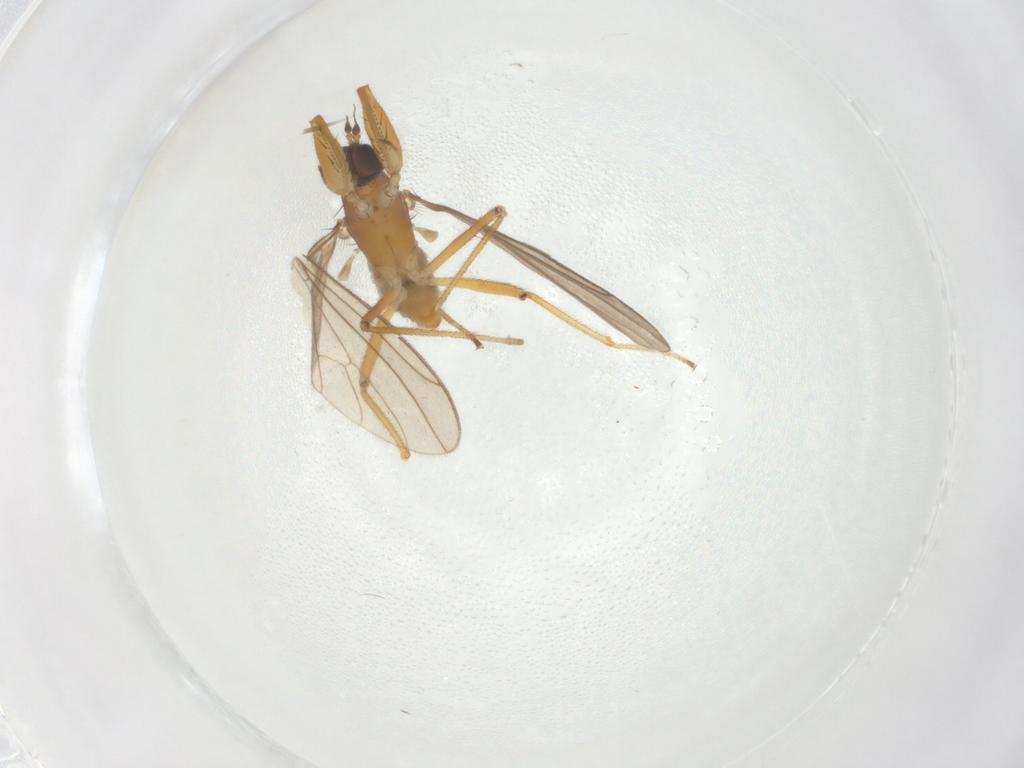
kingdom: Animalia
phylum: Arthropoda
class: Insecta
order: Diptera
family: Empididae
